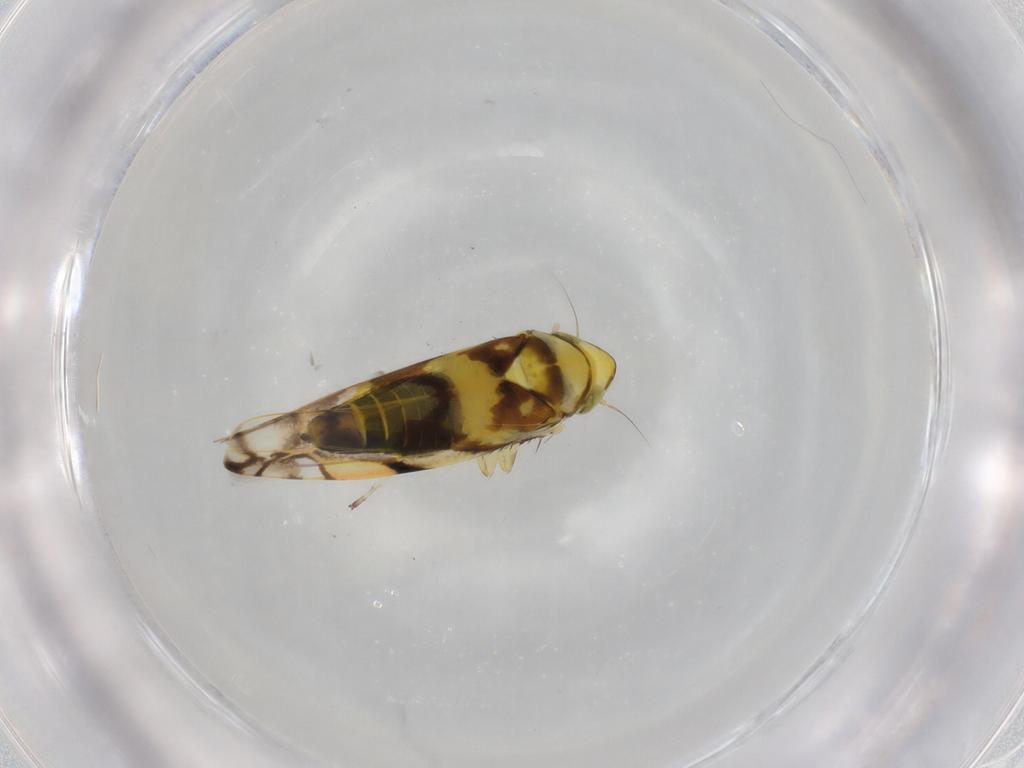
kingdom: Animalia
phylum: Arthropoda
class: Insecta
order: Hemiptera
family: Cicadellidae
